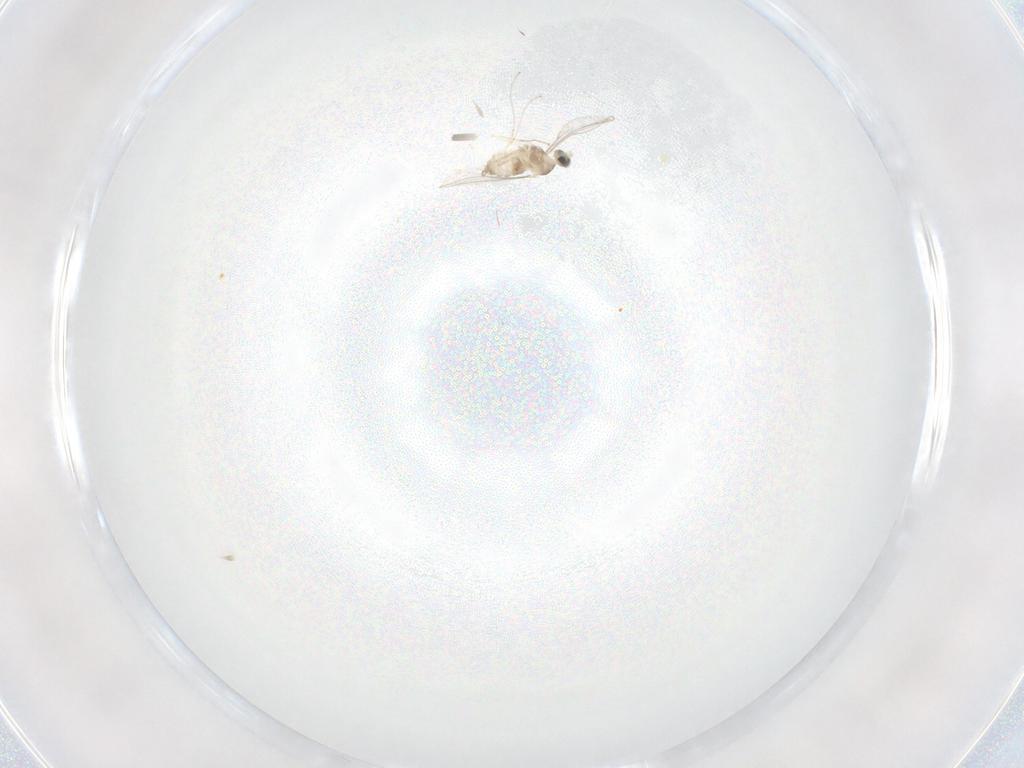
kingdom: Animalia
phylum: Arthropoda
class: Insecta
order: Diptera
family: Cecidomyiidae
